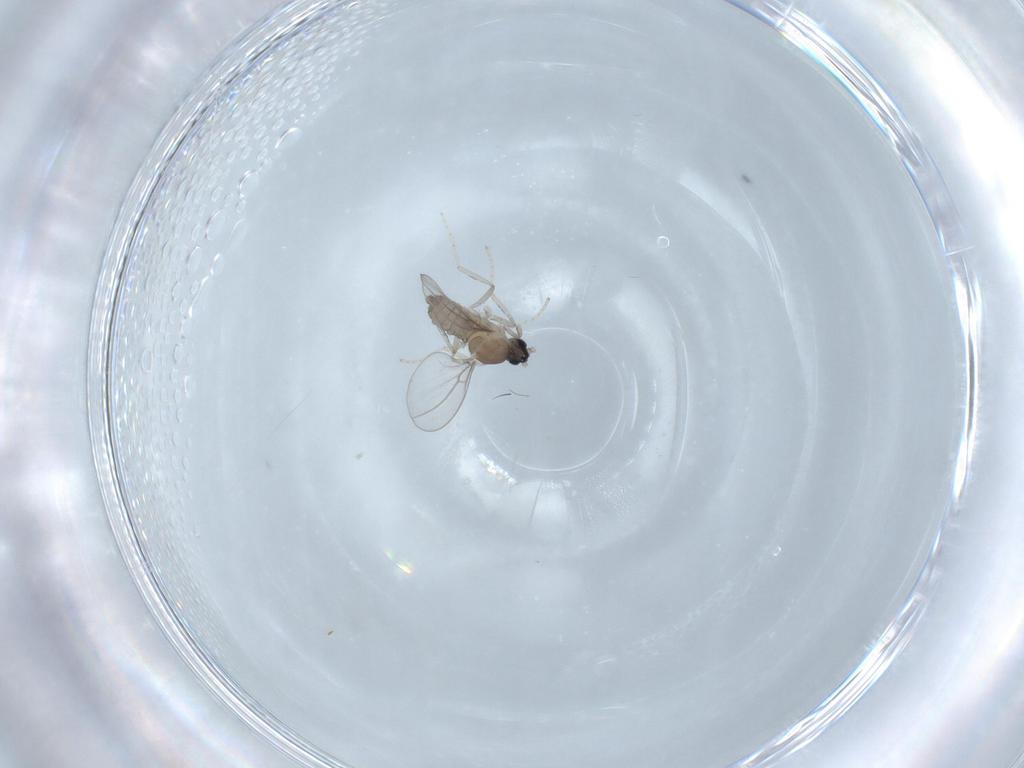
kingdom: Animalia
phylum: Arthropoda
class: Insecta
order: Diptera
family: Cecidomyiidae
